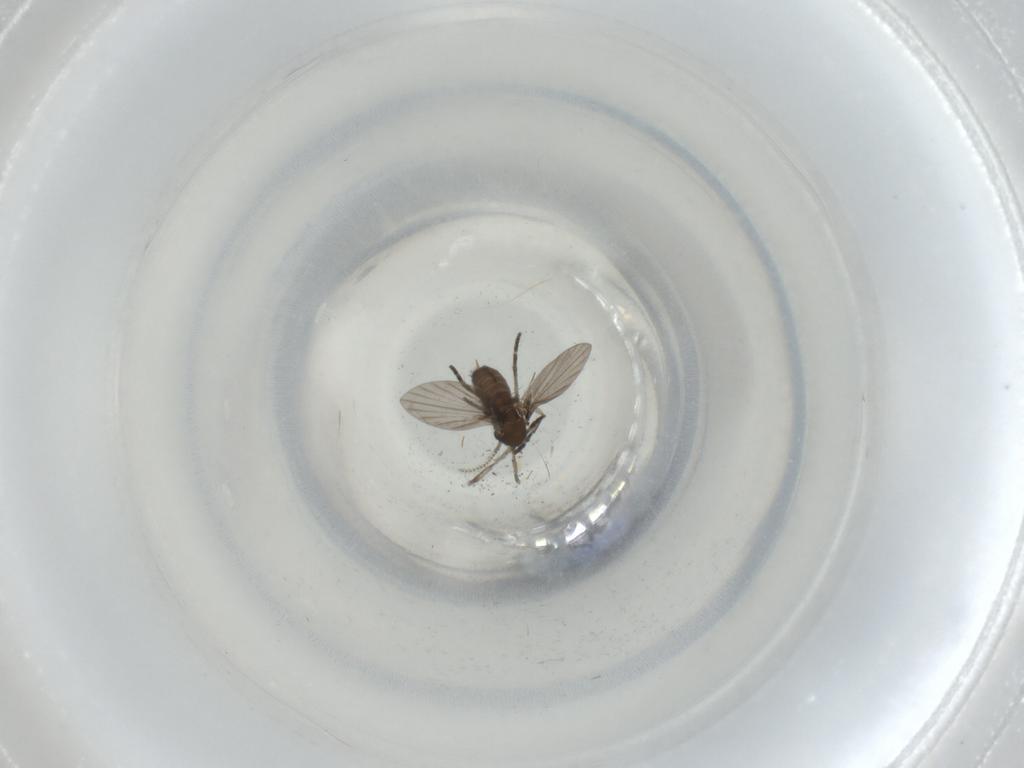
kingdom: Animalia
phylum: Arthropoda
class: Insecta
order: Diptera
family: Psychodidae
